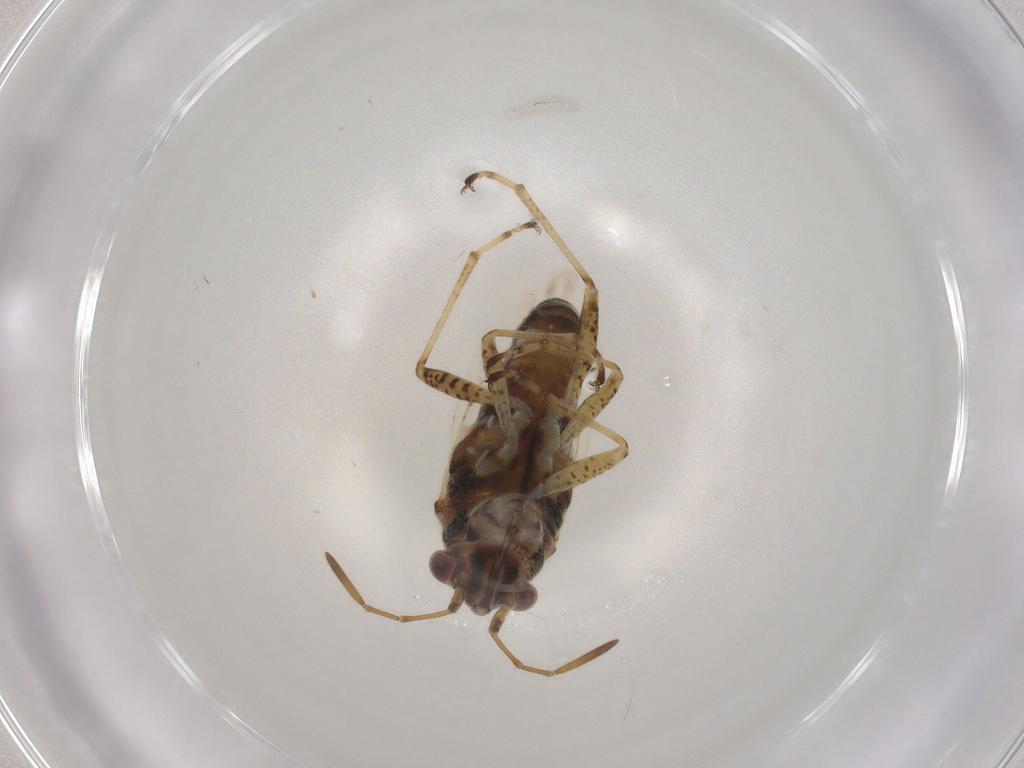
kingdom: Animalia
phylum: Arthropoda
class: Insecta
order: Hemiptera
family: Lygaeidae
